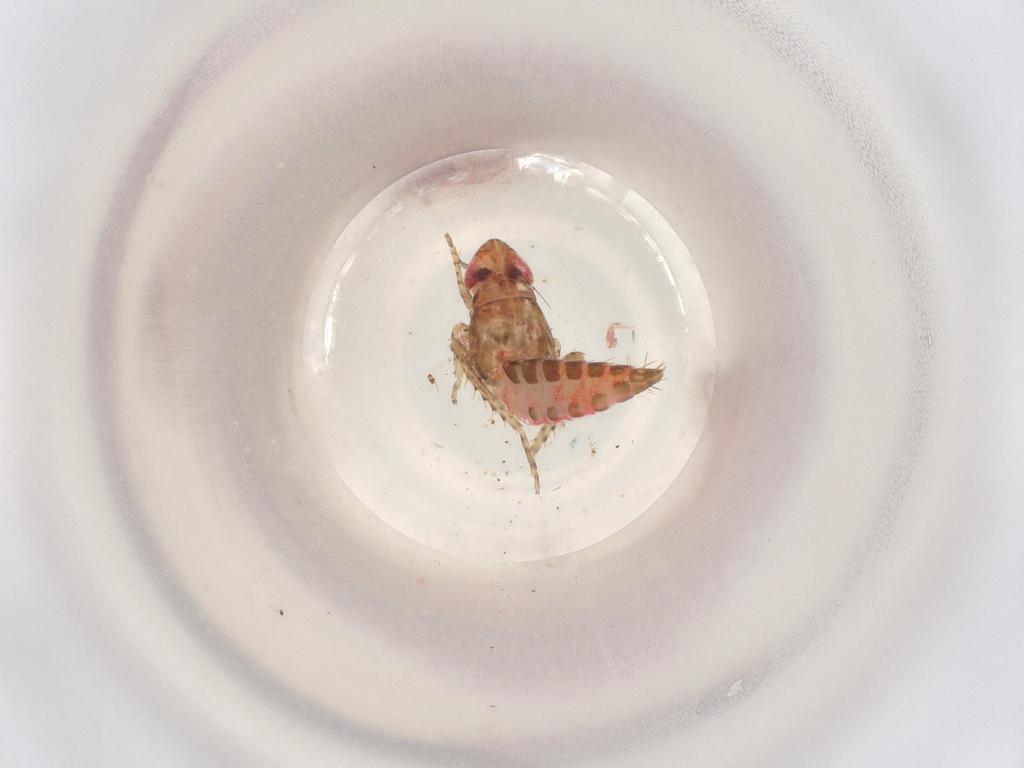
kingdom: Animalia
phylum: Arthropoda
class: Insecta
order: Hemiptera
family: Cicadellidae
